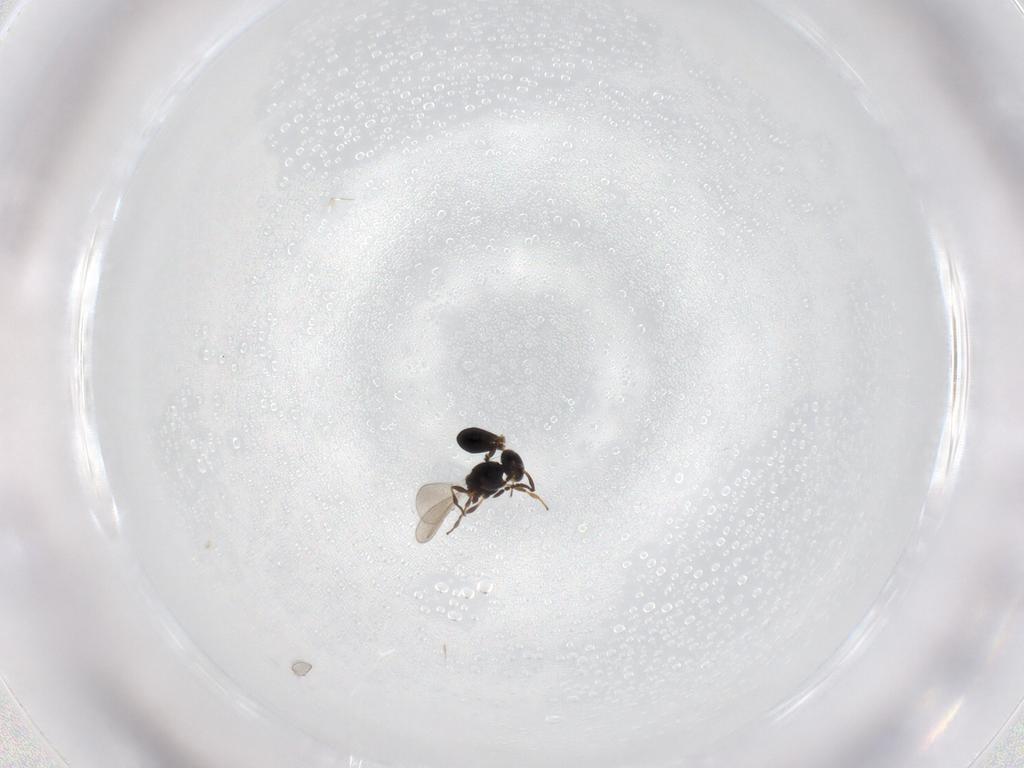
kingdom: Animalia
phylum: Arthropoda
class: Insecta
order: Hymenoptera
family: Platygastridae
